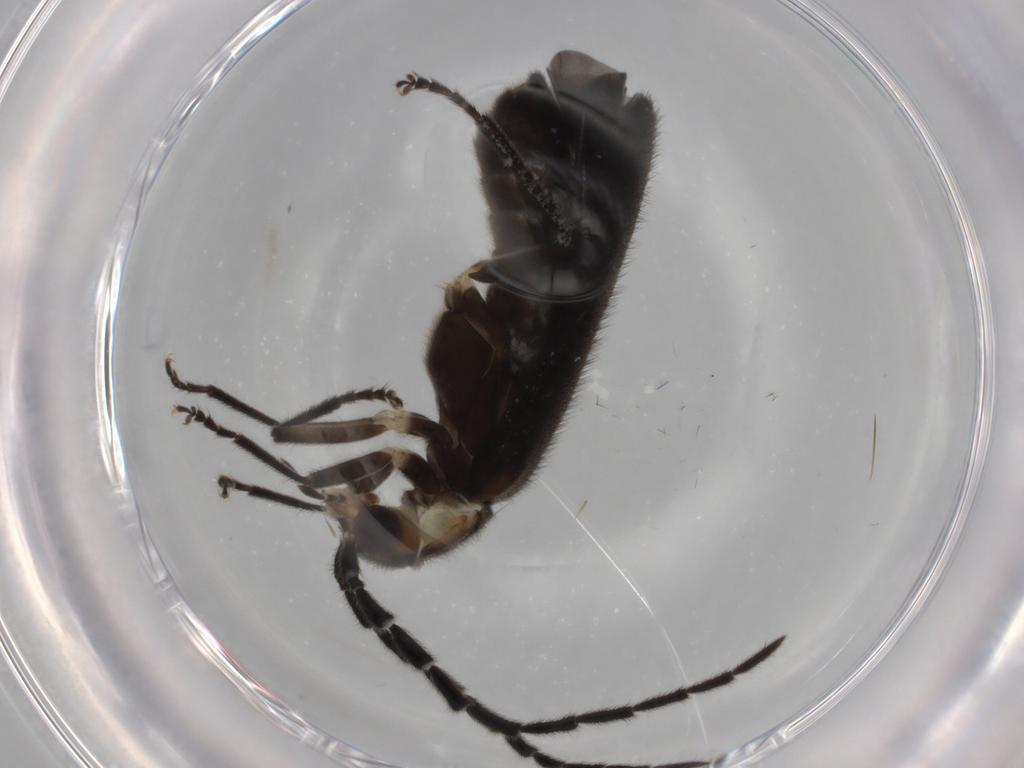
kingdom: Animalia
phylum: Arthropoda
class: Insecta
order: Coleoptera
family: Cantharidae
